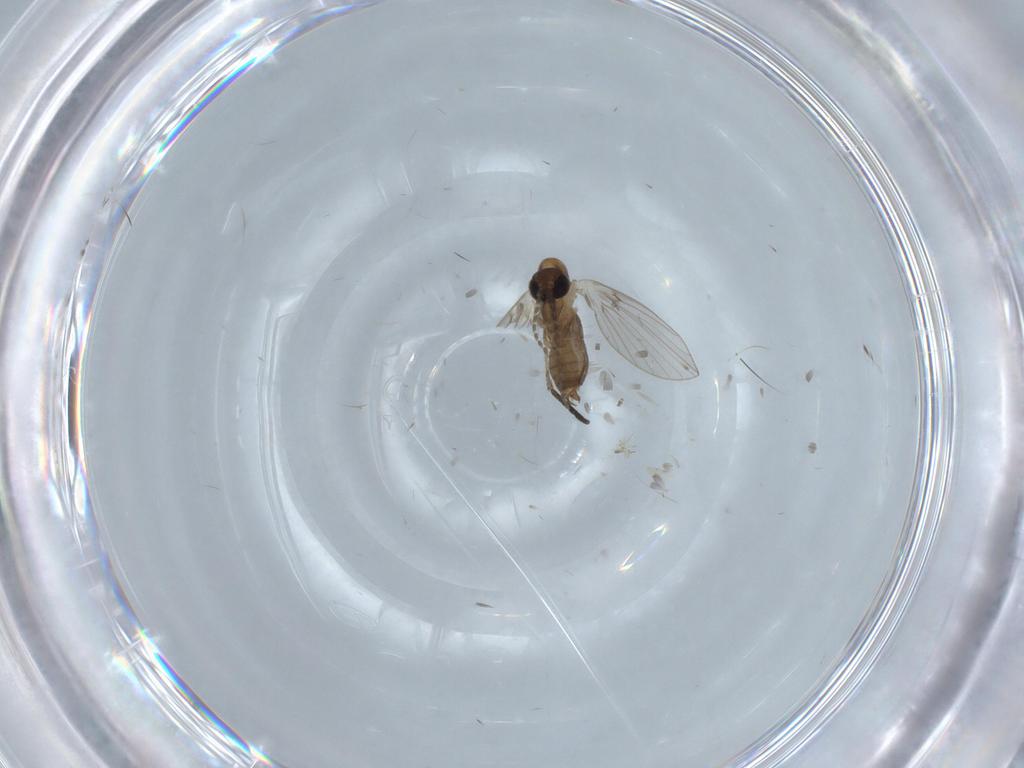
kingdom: Animalia
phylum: Arthropoda
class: Insecta
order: Diptera
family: Psychodidae
